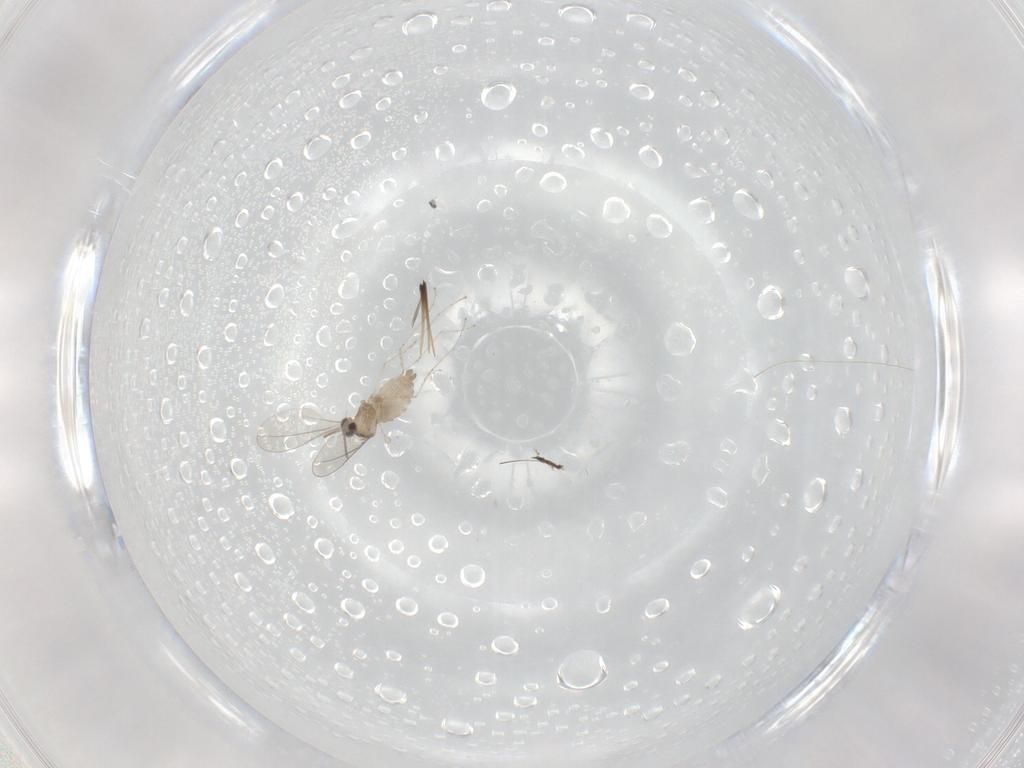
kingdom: Animalia
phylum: Arthropoda
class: Insecta
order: Diptera
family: Cecidomyiidae
